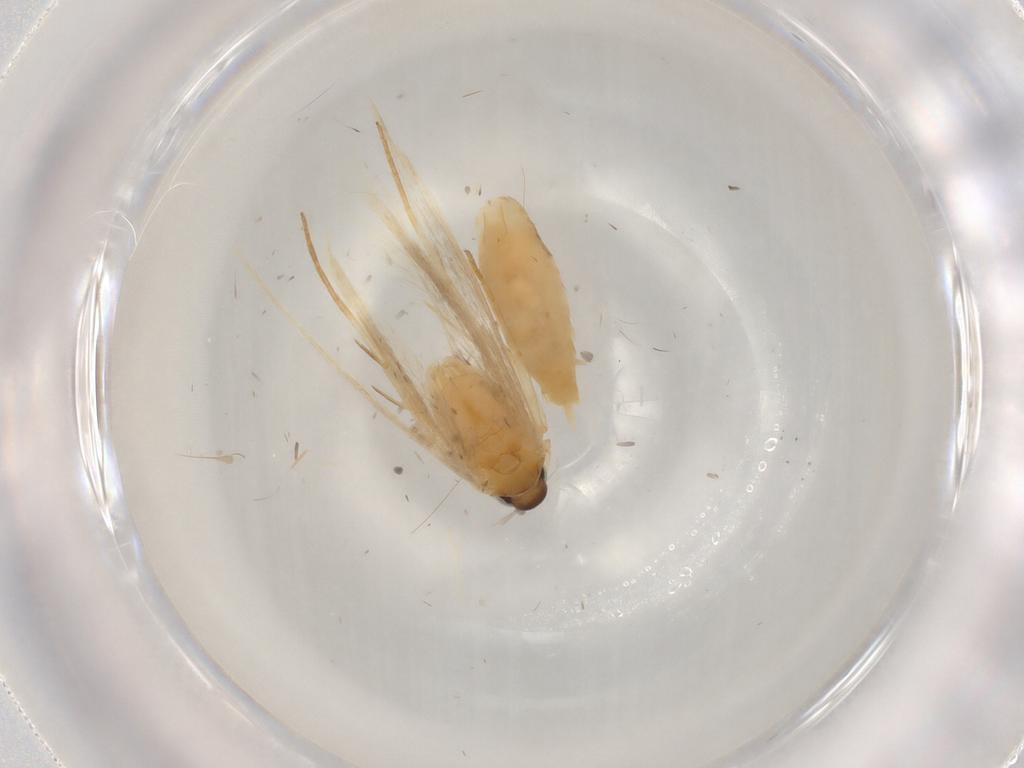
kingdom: Animalia
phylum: Arthropoda
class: Insecta
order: Lepidoptera
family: Lecithoceridae
